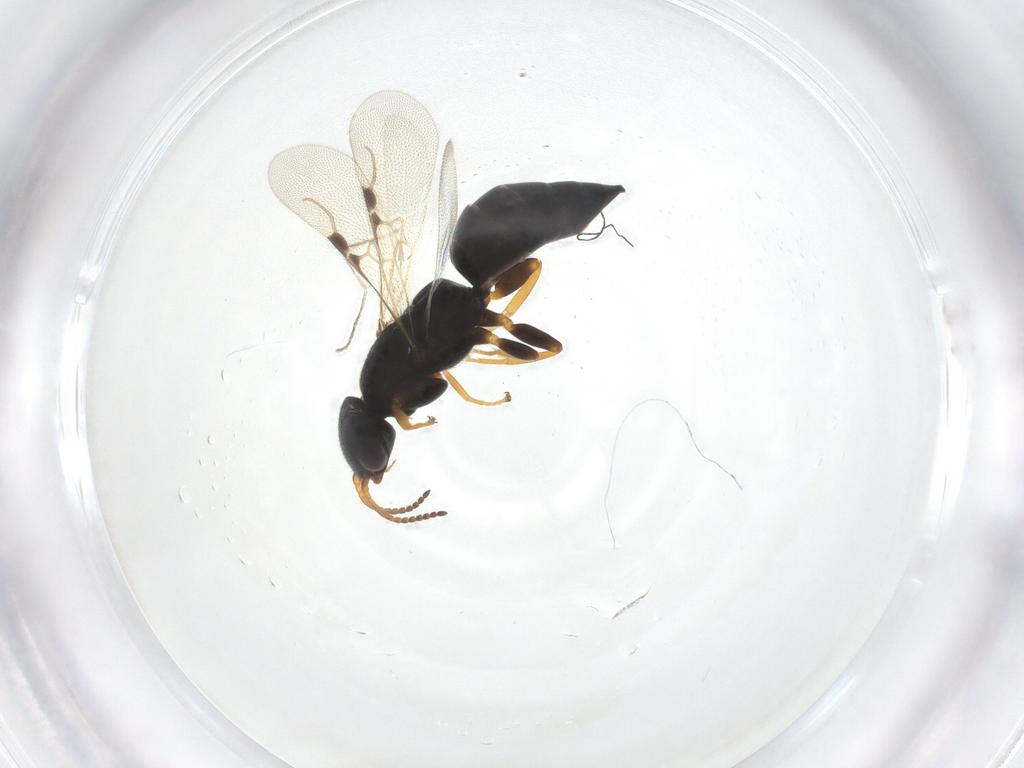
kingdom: Animalia
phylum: Arthropoda
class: Insecta
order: Hymenoptera
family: Bethylidae
